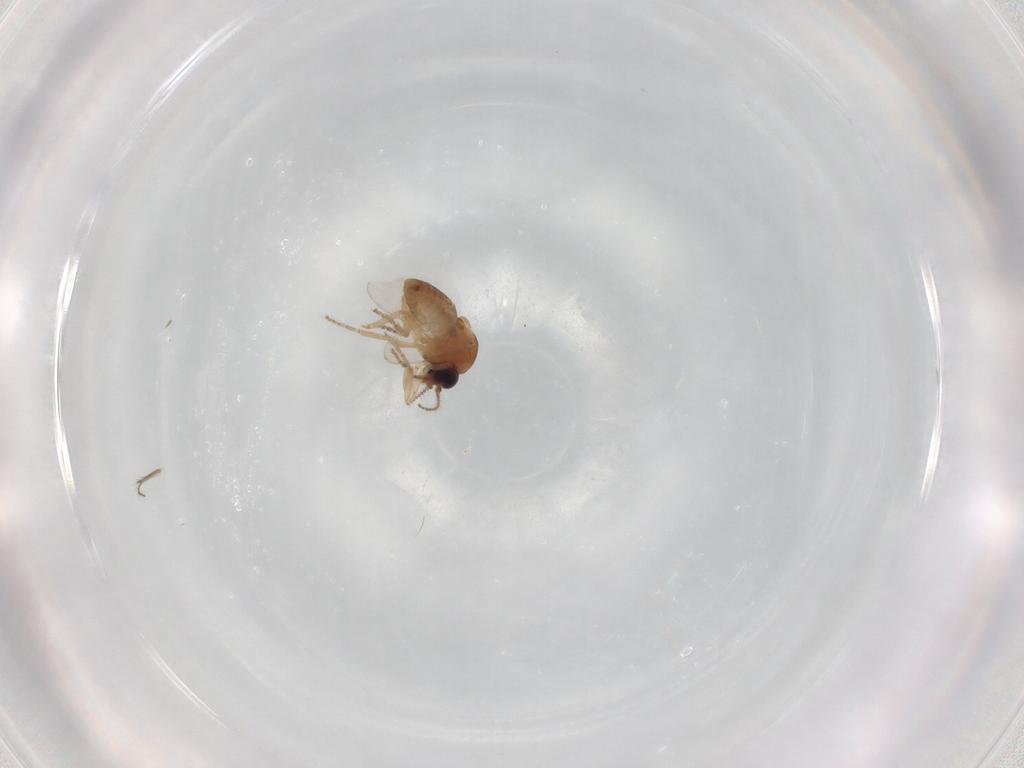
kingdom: Animalia
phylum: Arthropoda
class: Insecta
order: Diptera
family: Ceratopogonidae
